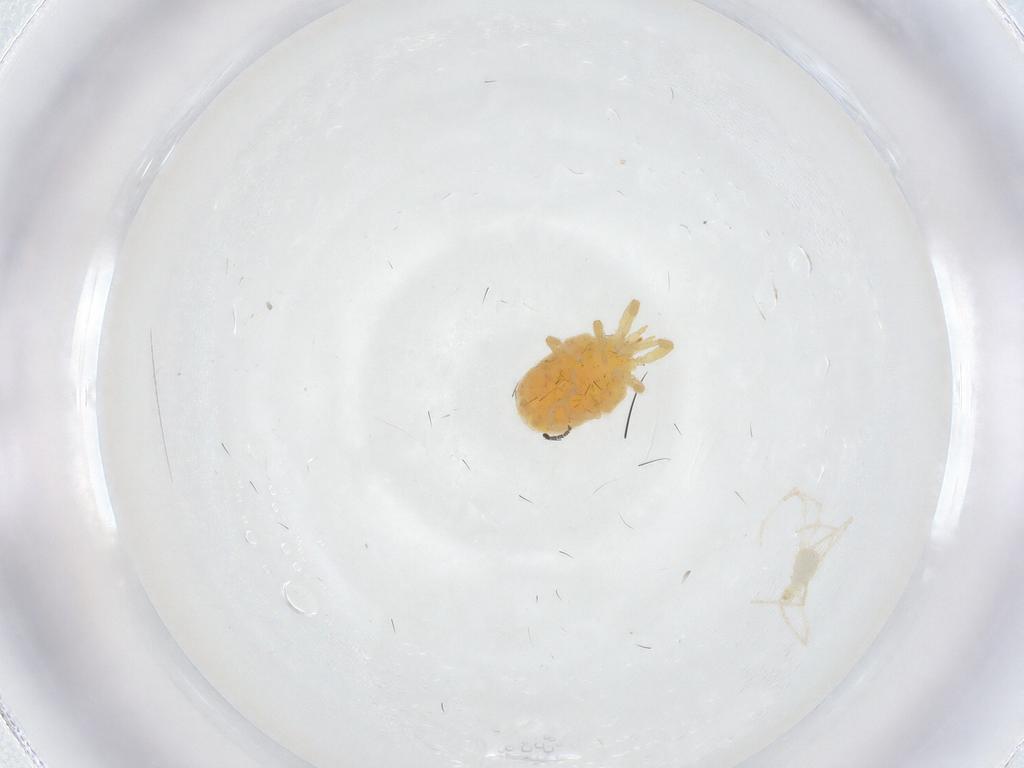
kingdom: Animalia
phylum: Arthropoda
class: Arachnida
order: Trombidiformes
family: Erythraeidae
